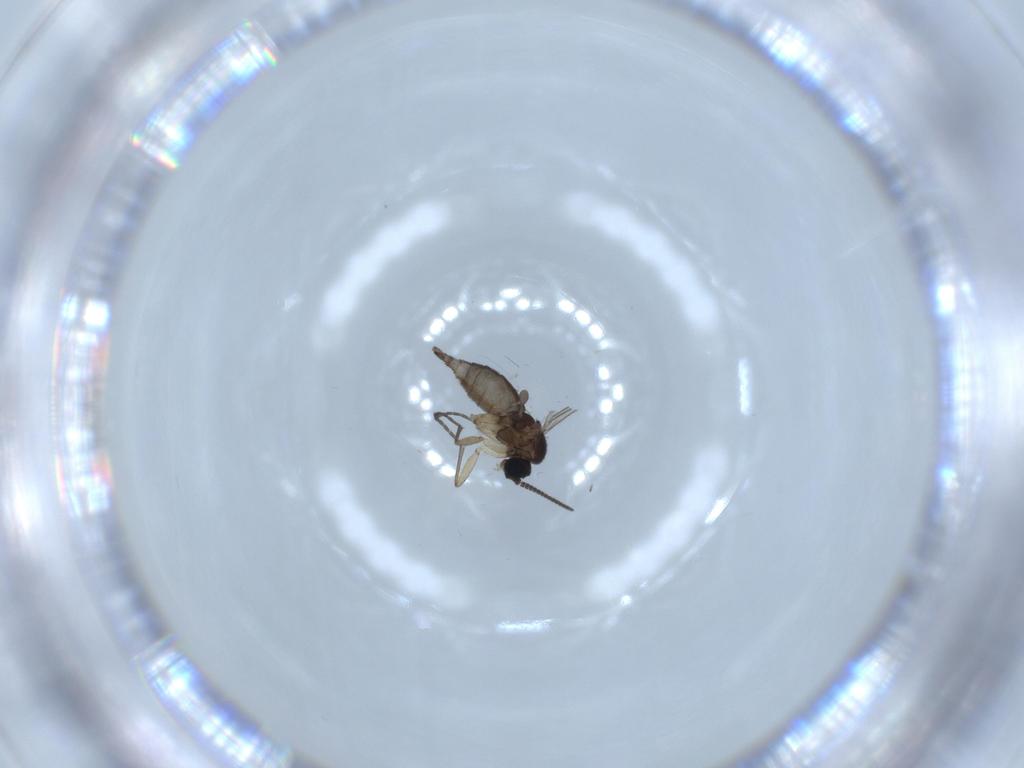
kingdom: Animalia
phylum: Arthropoda
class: Insecta
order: Diptera
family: Sciaridae
